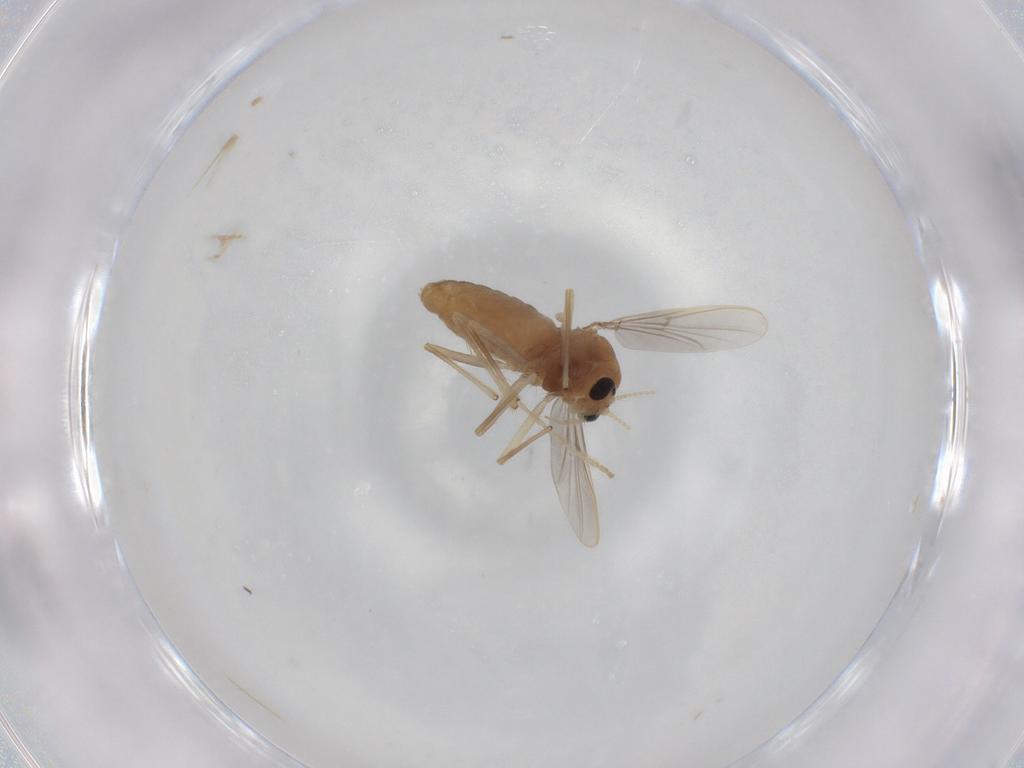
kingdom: Animalia
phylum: Arthropoda
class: Insecta
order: Diptera
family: Chironomidae
